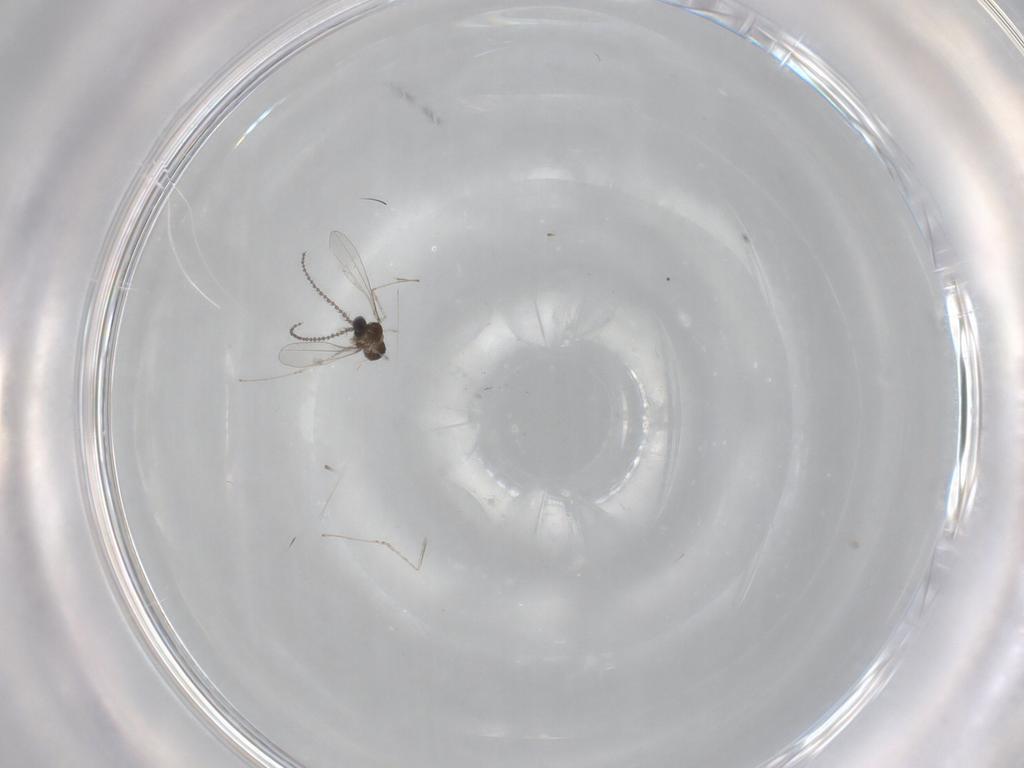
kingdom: Animalia
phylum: Arthropoda
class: Insecta
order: Diptera
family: Cecidomyiidae
